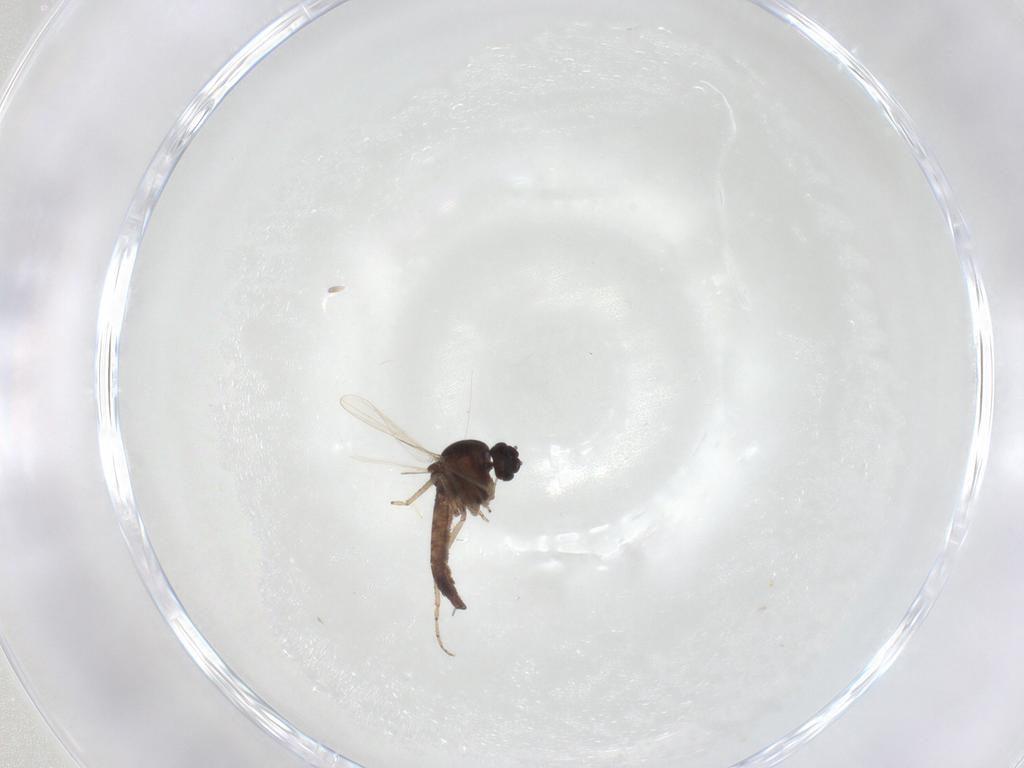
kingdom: Animalia
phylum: Arthropoda
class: Insecta
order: Diptera
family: Ceratopogonidae
